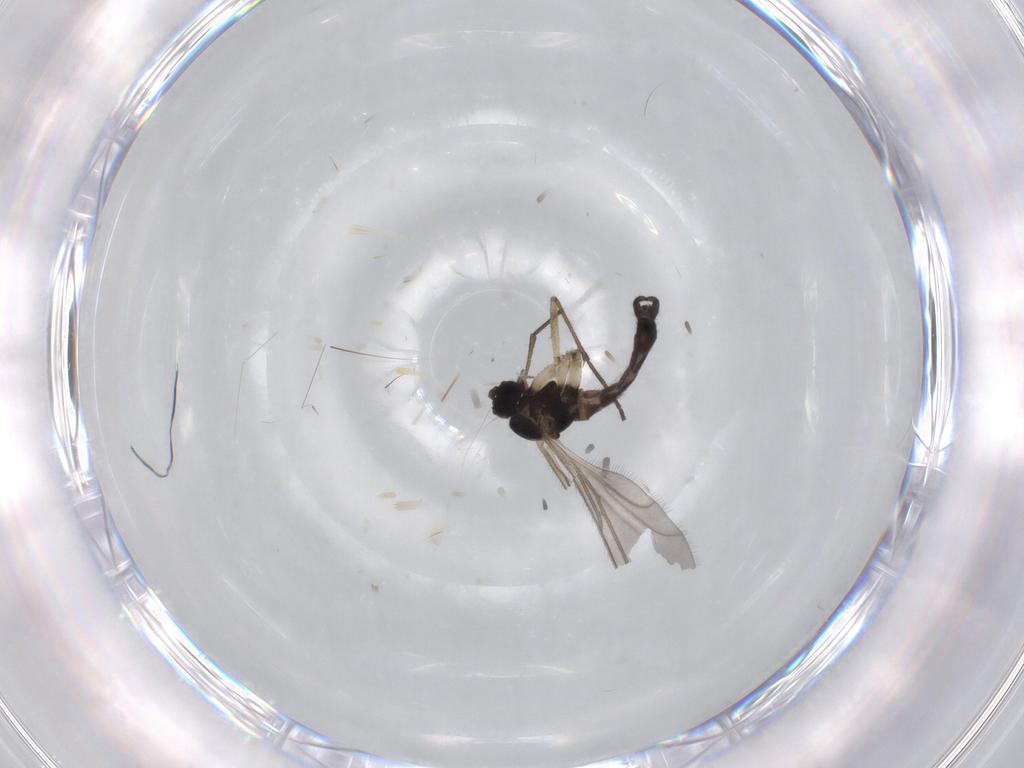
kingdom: Animalia
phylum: Arthropoda
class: Insecta
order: Diptera
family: Sciaridae
